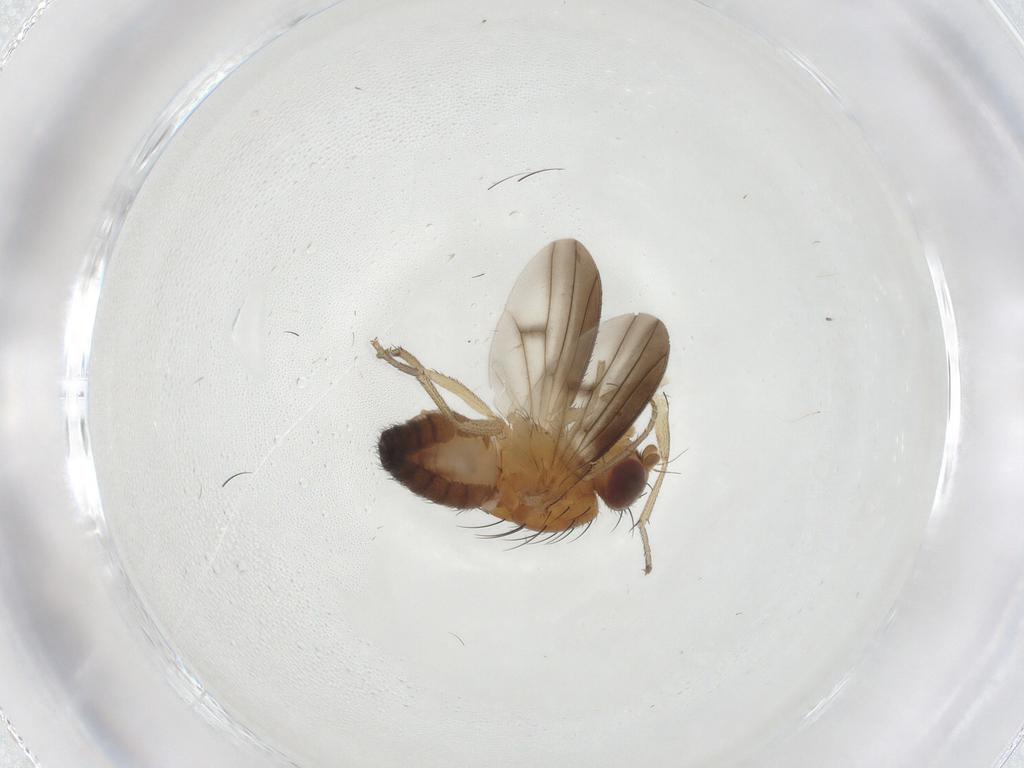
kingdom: Animalia
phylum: Arthropoda
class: Insecta
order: Diptera
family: Heleomyzidae
